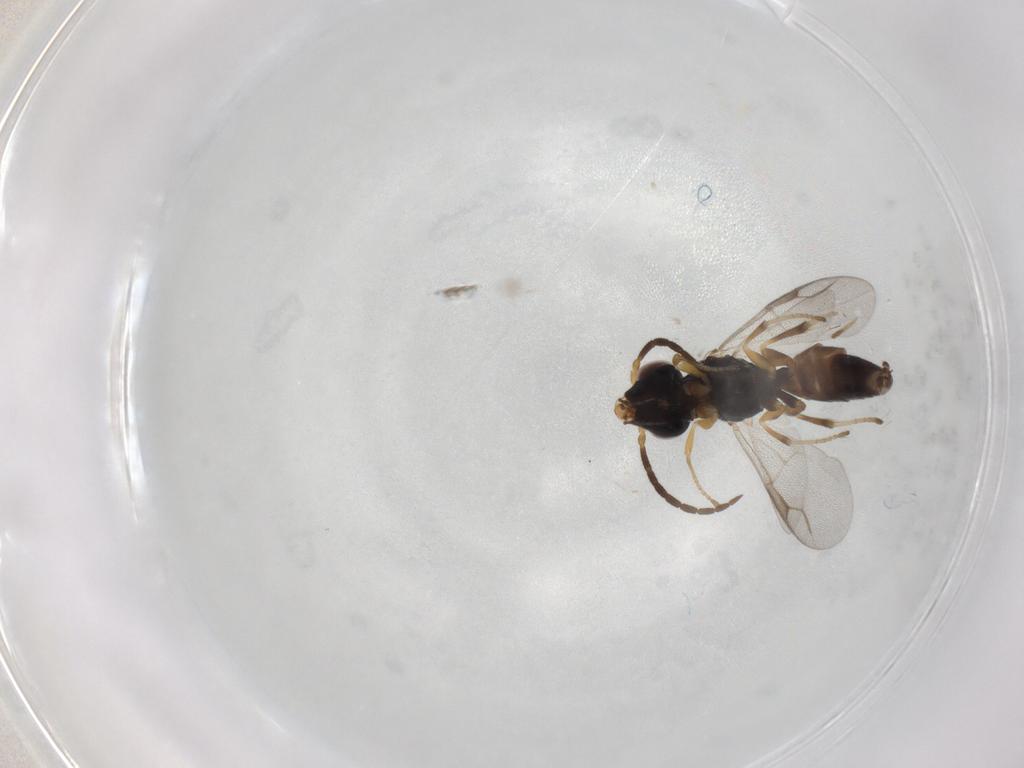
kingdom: Animalia
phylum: Arthropoda
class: Insecta
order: Hymenoptera
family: Dryinidae
